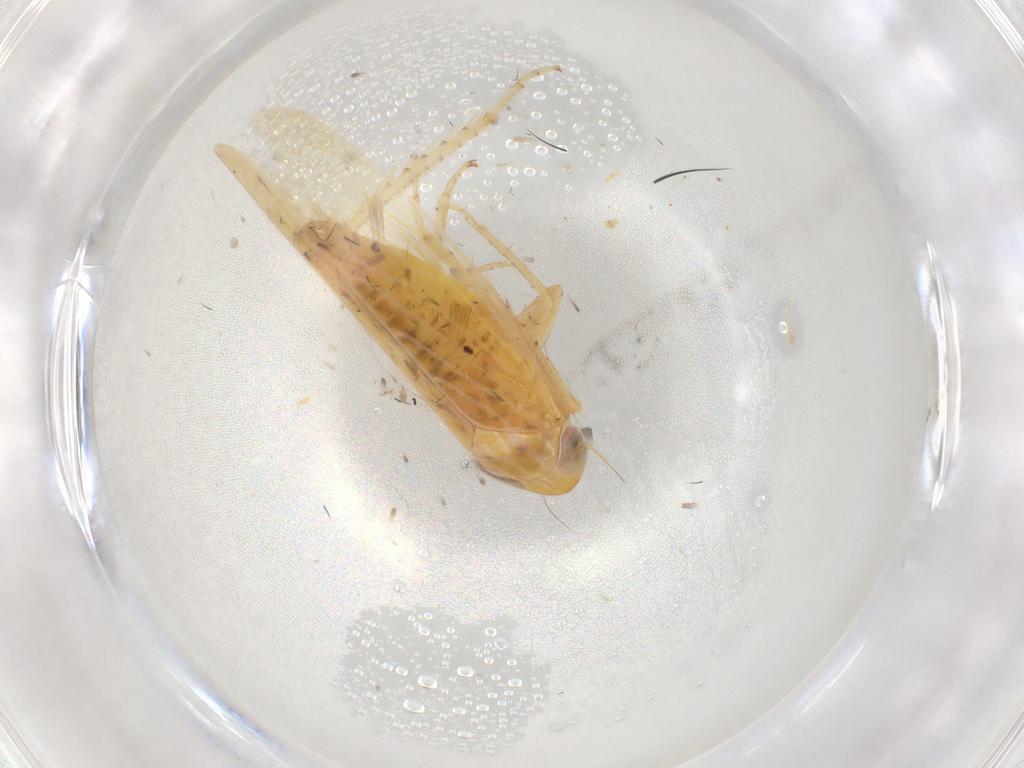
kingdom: Animalia
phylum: Arthropoda
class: Insecta
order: Hemiptera
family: Cicadellidae
